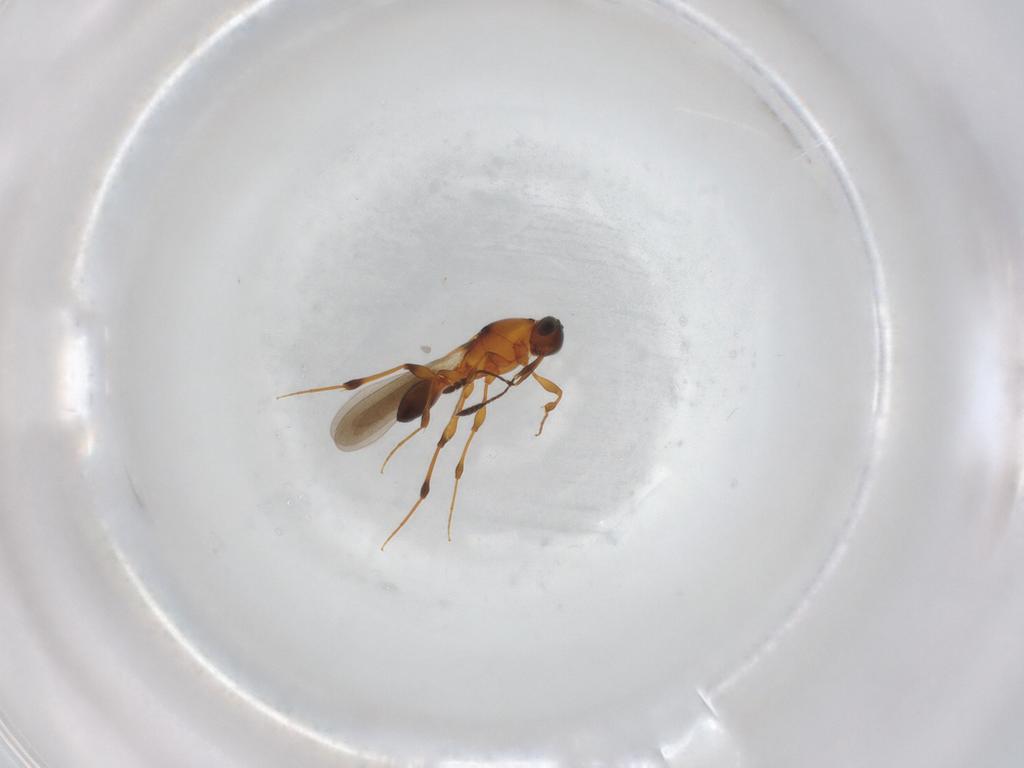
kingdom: Animalia
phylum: Arthropoda
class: Insecta
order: Hymenoptera
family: Platygastridae
